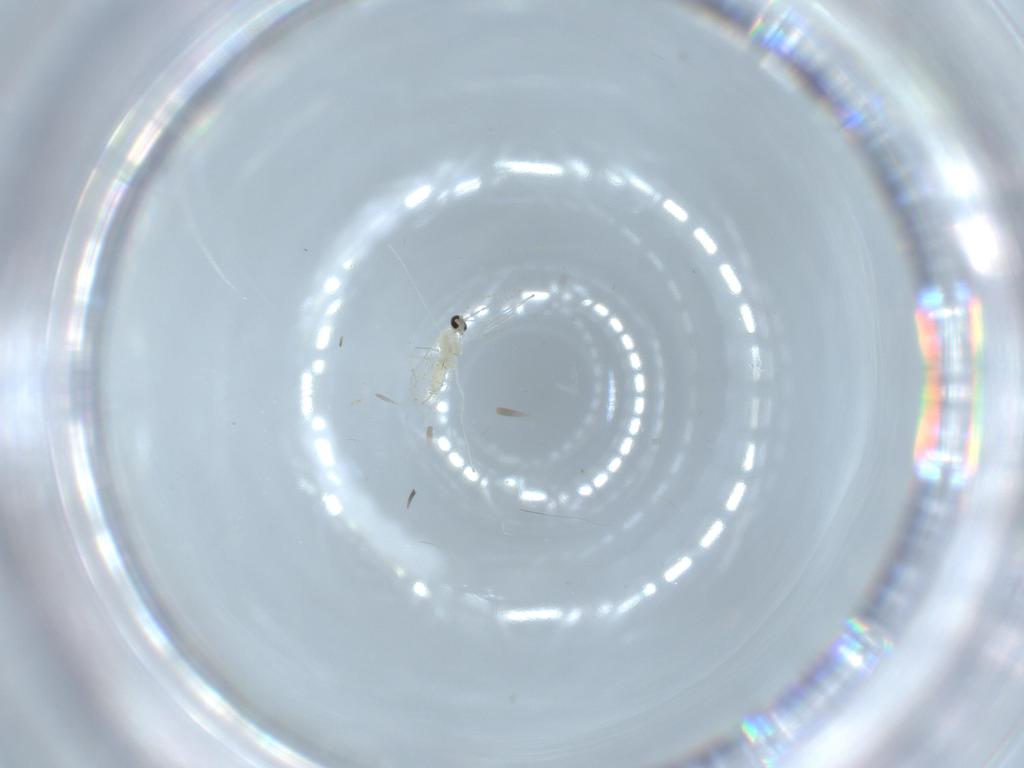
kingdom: Animalia
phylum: Arthropoda
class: Insecta
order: Diptera
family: Cecidomyiidae
